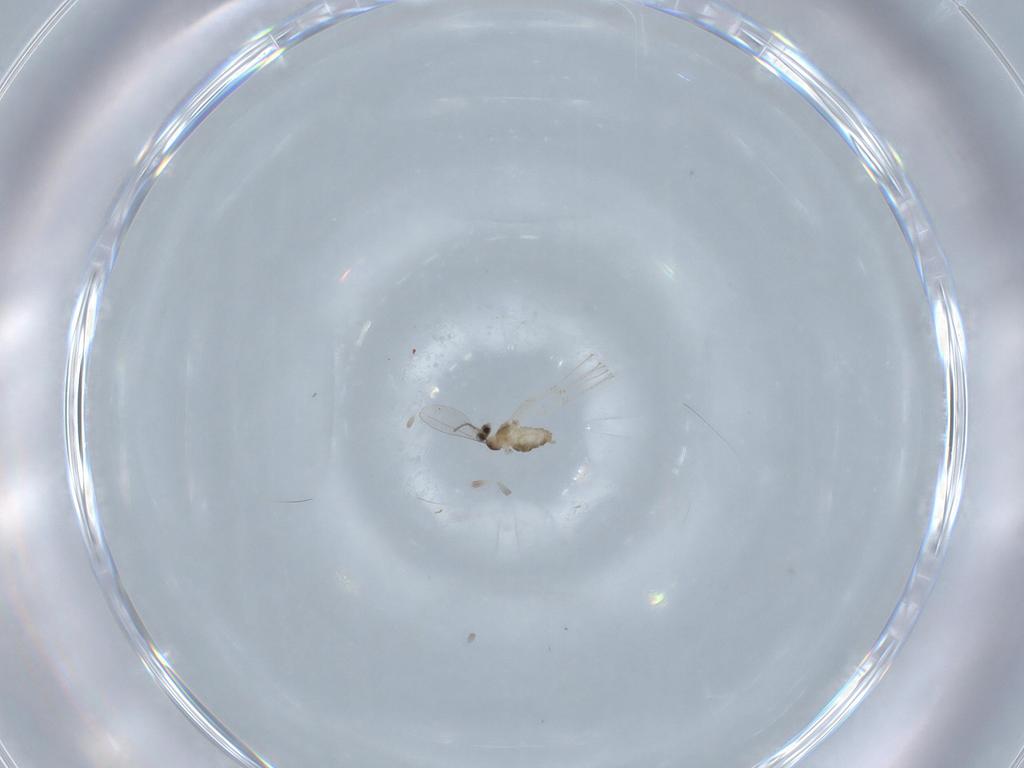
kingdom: Animalia
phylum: Arthropoda
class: Insecta
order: Diptera
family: Cecidomyiidae
